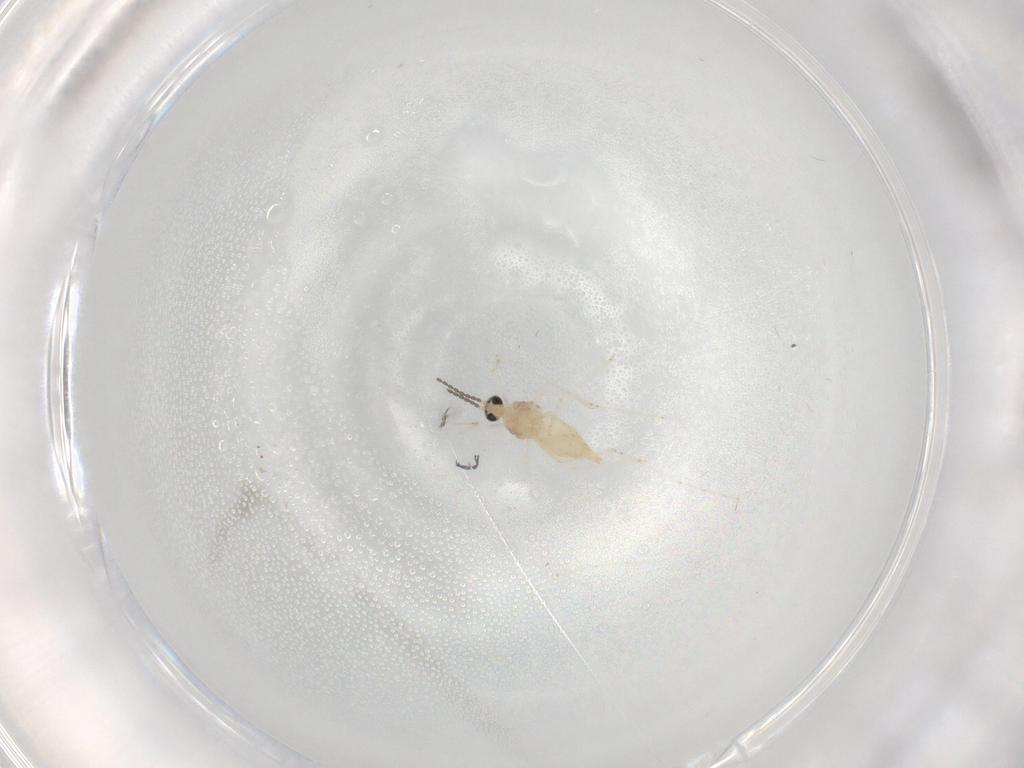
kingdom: Animalia
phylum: Arthropoda
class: Insecta
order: Diptera
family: Cecidomyiidae
